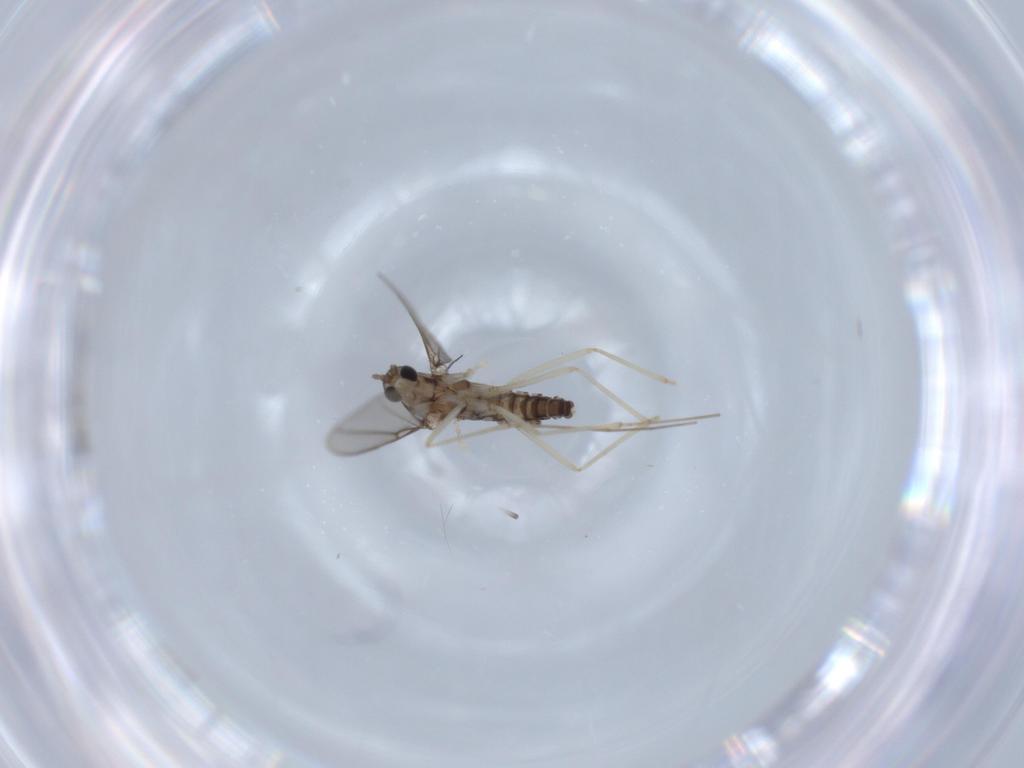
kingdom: Animalia
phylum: Arthropoda
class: Insecta
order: Diptera
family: Cecidomyiidae
